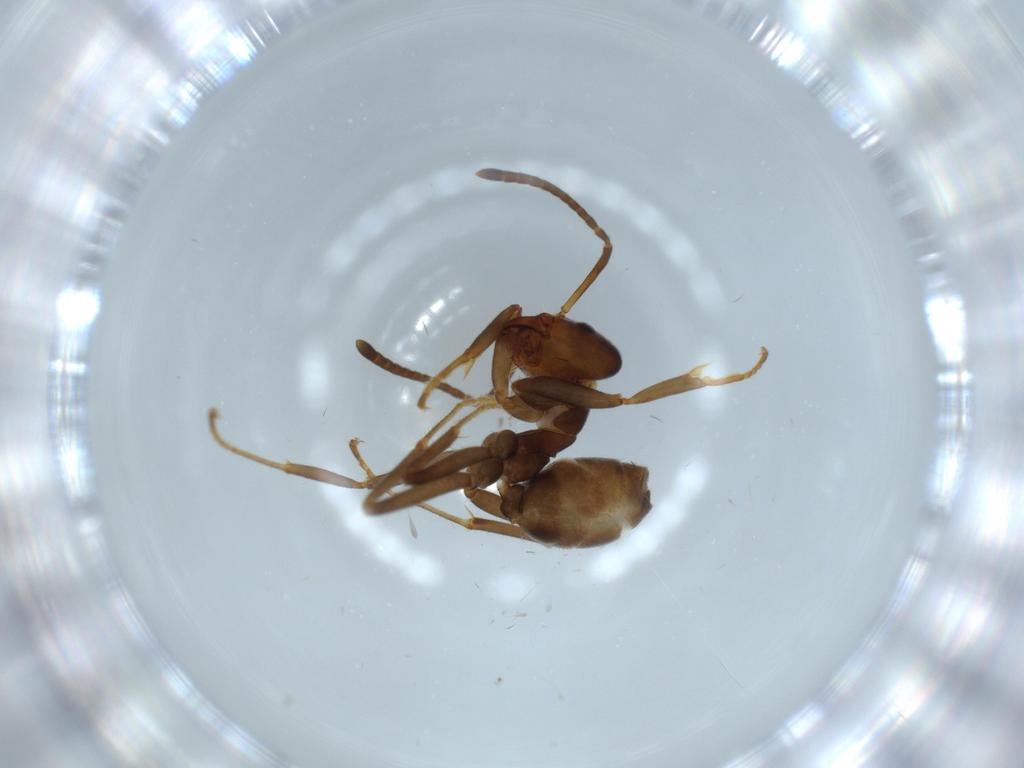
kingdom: Animalia
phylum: Arthropoda
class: Insecta
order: Hymenoptera
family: Formicidae
